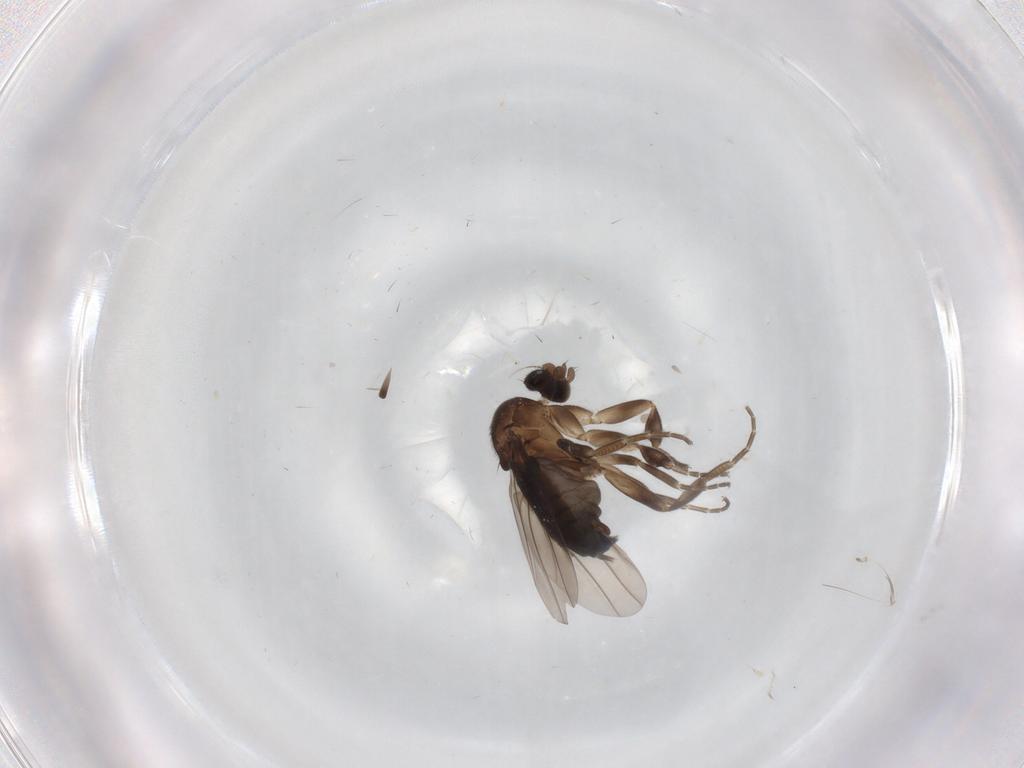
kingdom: Animalia
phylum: Arthropoda
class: Insecta
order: Diptera
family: Phoridae
